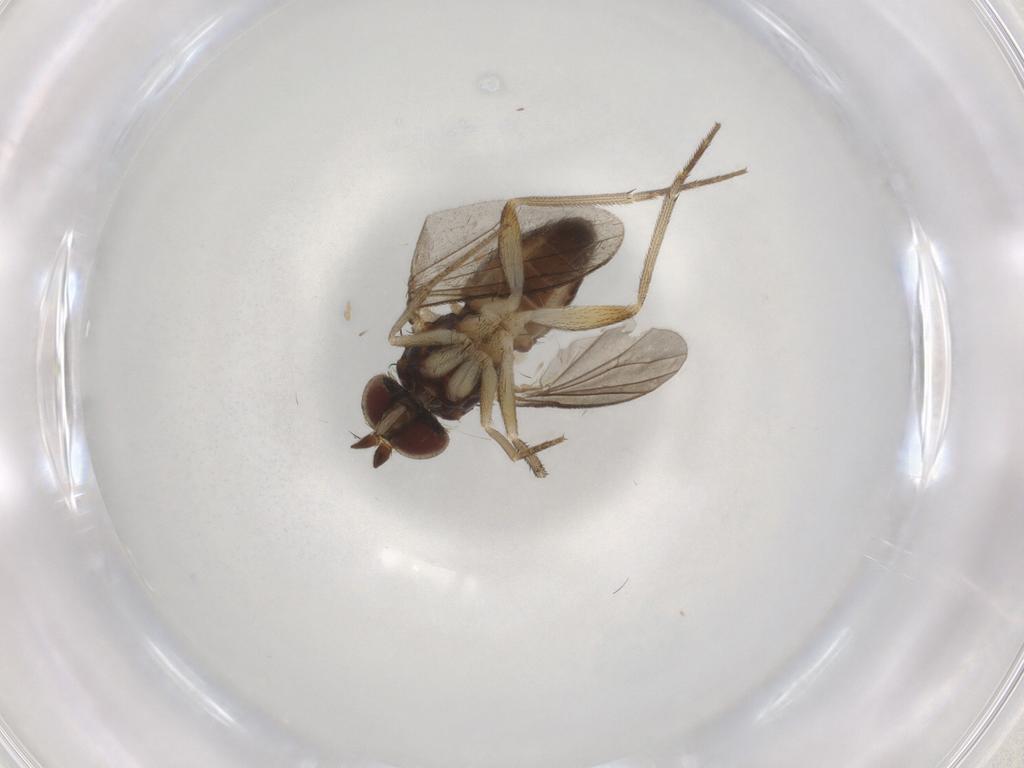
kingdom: Animalia
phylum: Arthropoda
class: Insecta
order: Diptera
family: Dolichopodidae
